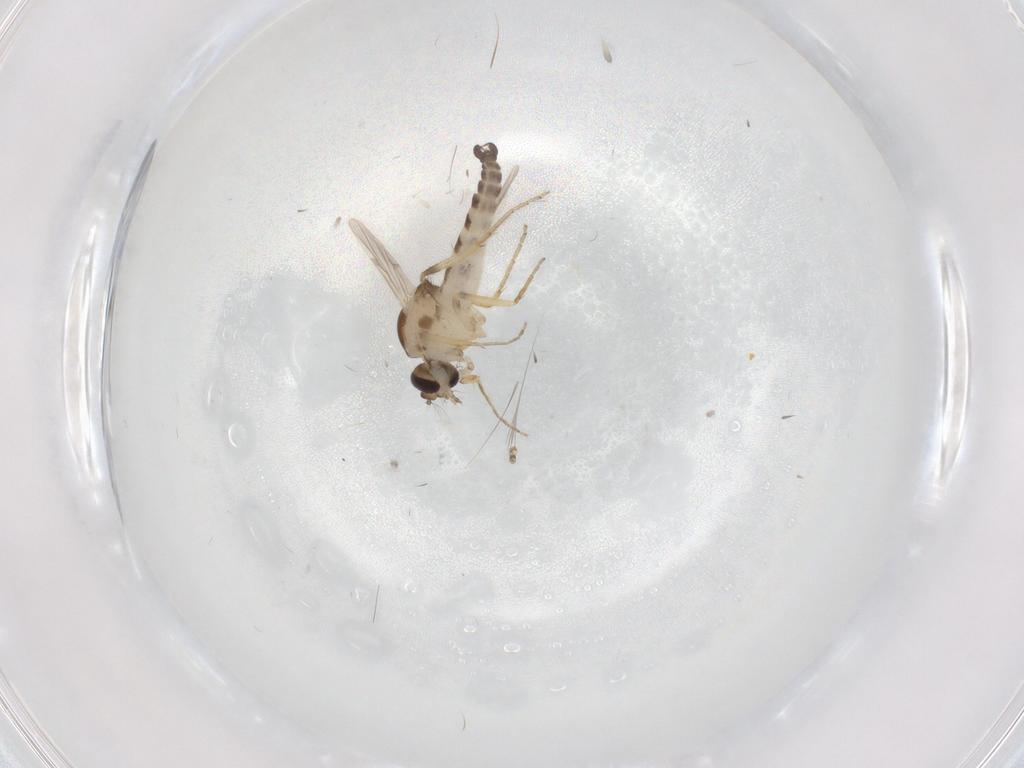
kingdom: Animalia
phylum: Arthropoda
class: Insecta
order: Diptera
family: Ceratopogonidae
